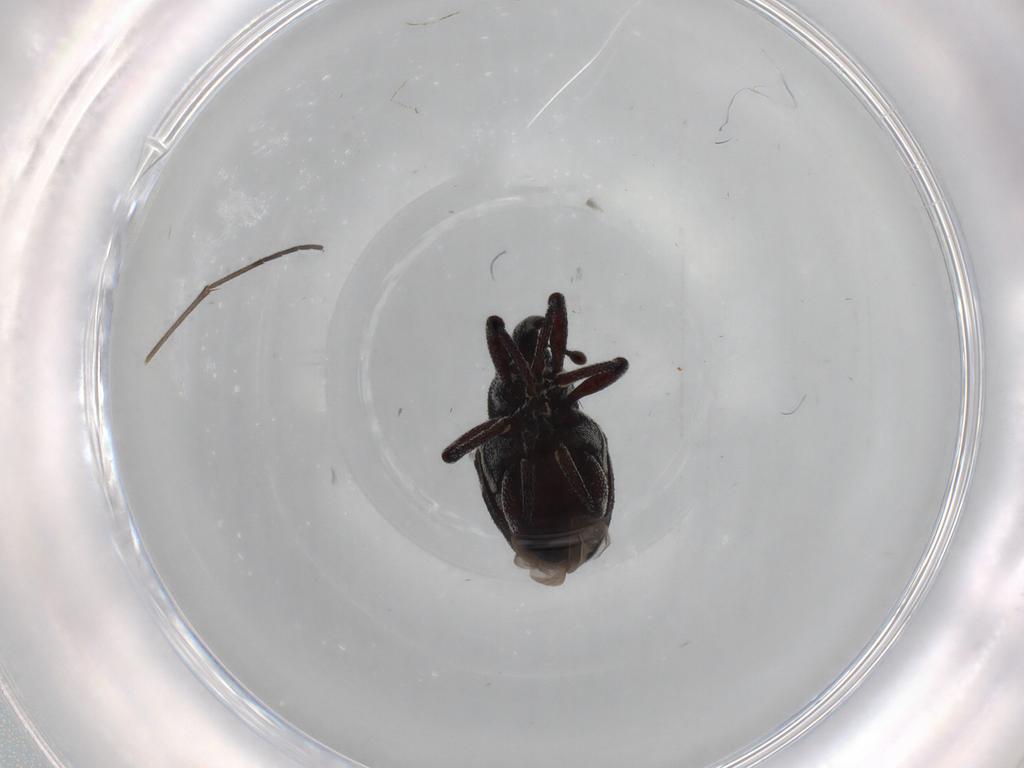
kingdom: Animalia
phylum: Arthropoda
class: Insecta
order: Coleoptera
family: Curculionidae
